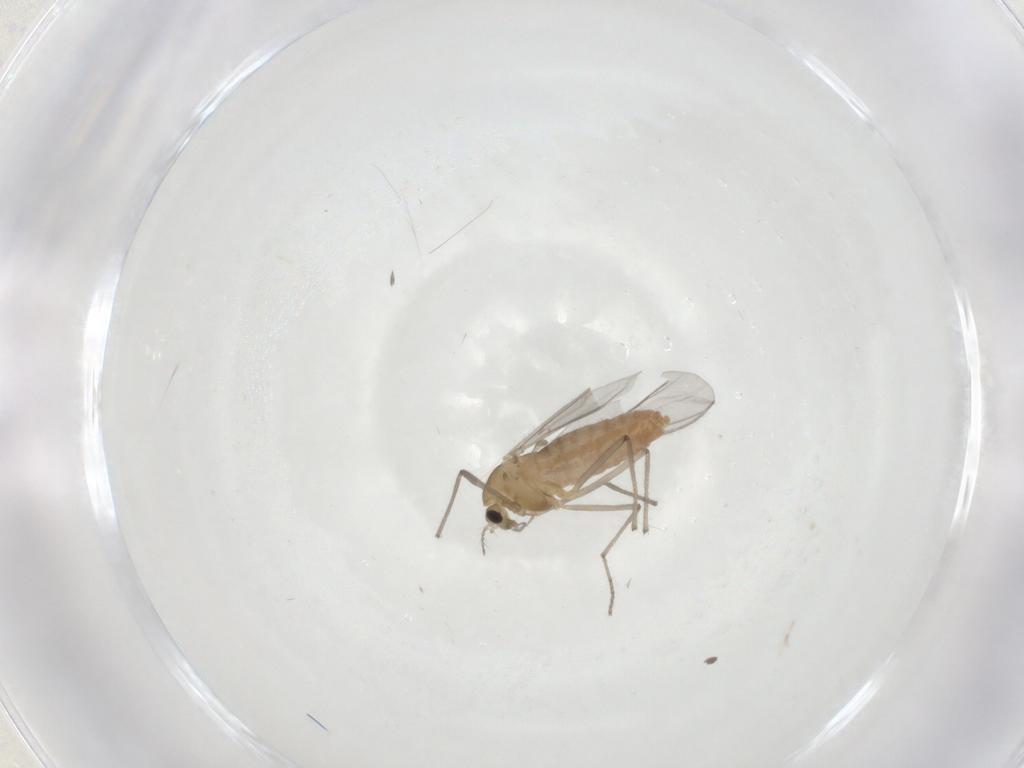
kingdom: Animalia
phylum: Arthropoda
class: Insecta
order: Diptera
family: Chironomidae
